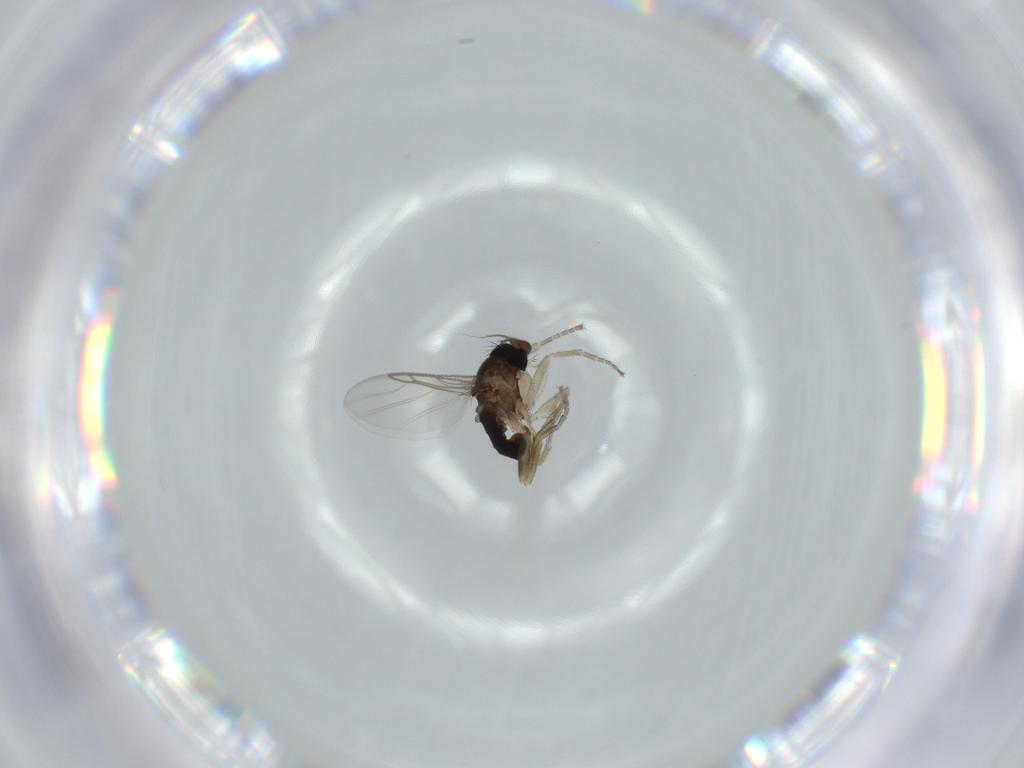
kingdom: Animalia
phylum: Arthropoda
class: Insecta
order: Diptera
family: Phoridae
